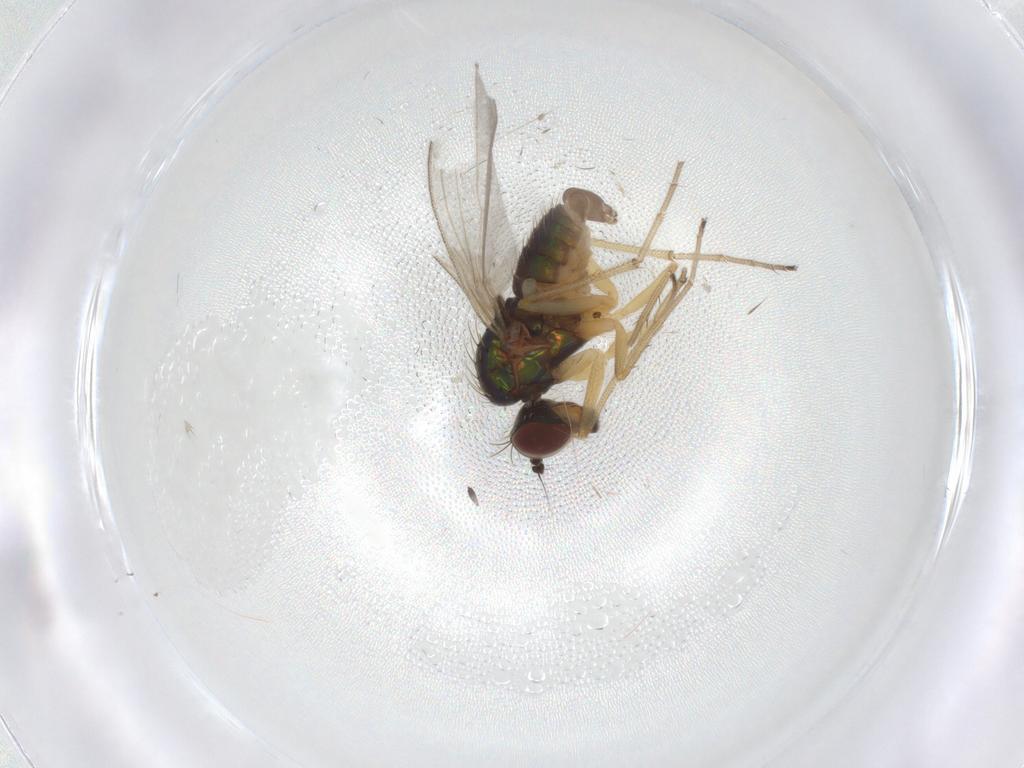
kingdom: Animalia
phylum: Arthropoda
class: Insecta
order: Diptera
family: Dolichopodidae
